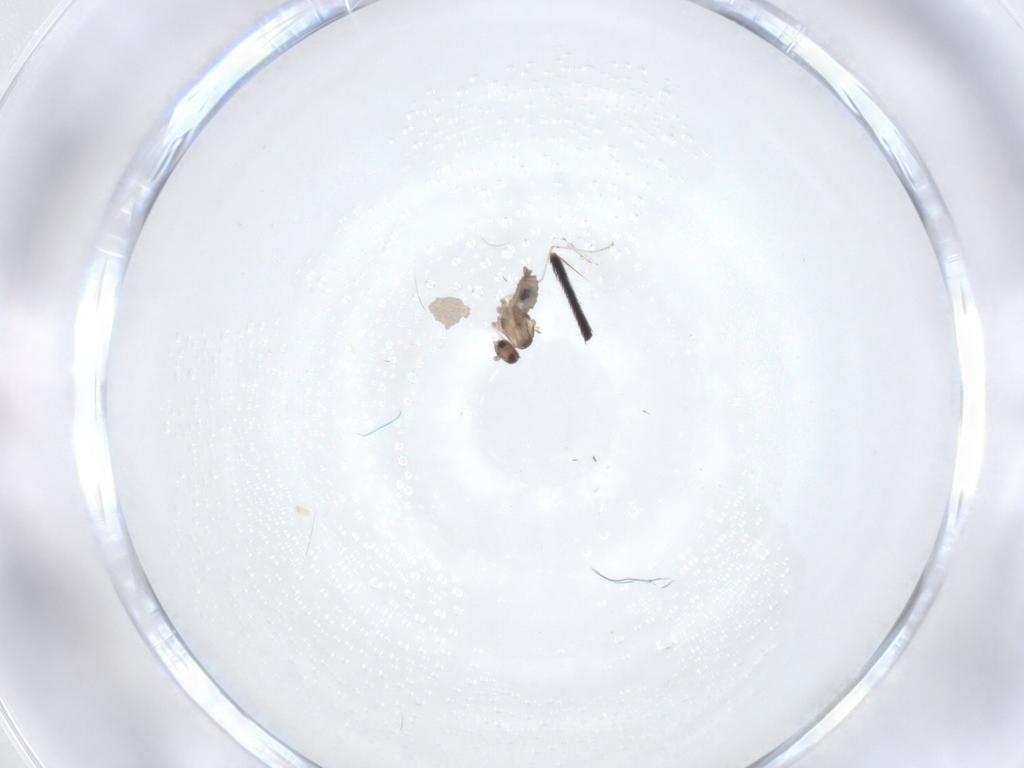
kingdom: Animalia
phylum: Arthropoda
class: Insecta
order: Diptera
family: Cecidomyiidae
